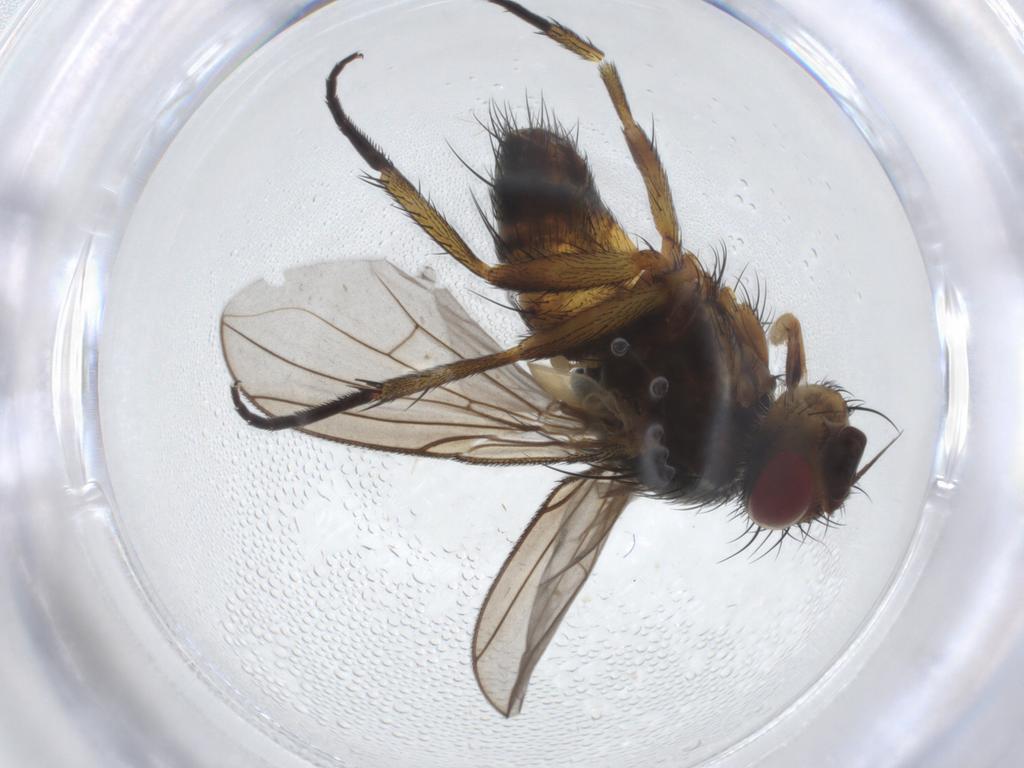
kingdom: Animalia
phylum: Arthropoda
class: Insecta
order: Diptera
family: Tachinidae
